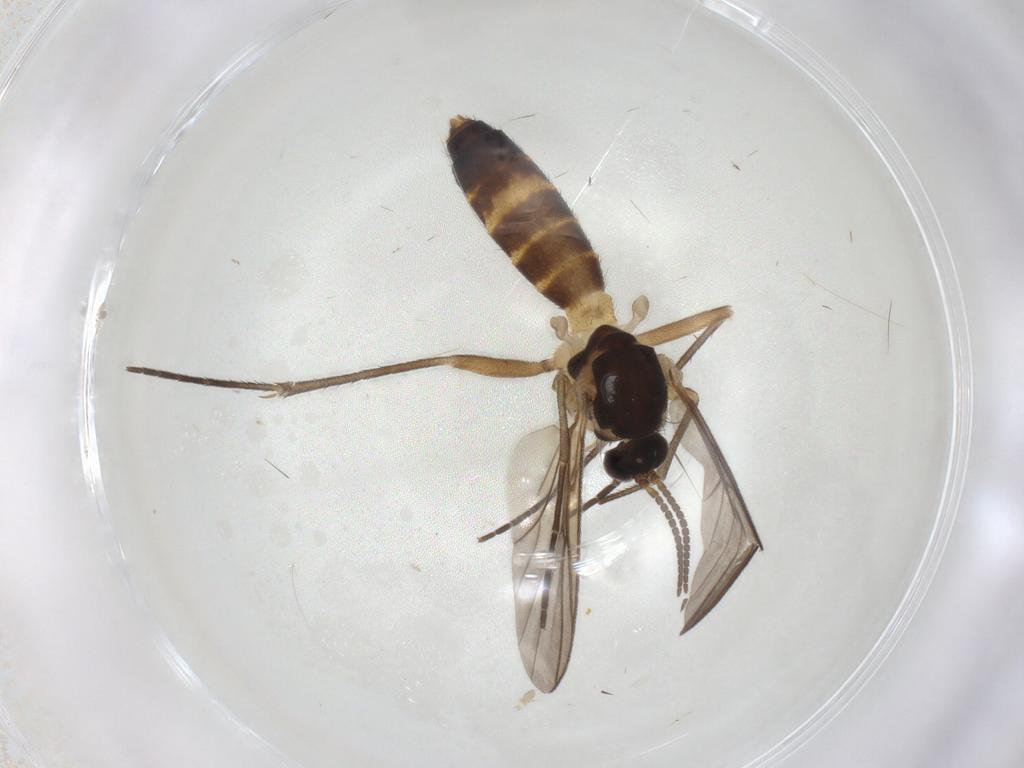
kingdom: Animalia
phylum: Arthropoda
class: Insecta
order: Diptera
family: Mycetophilidae
